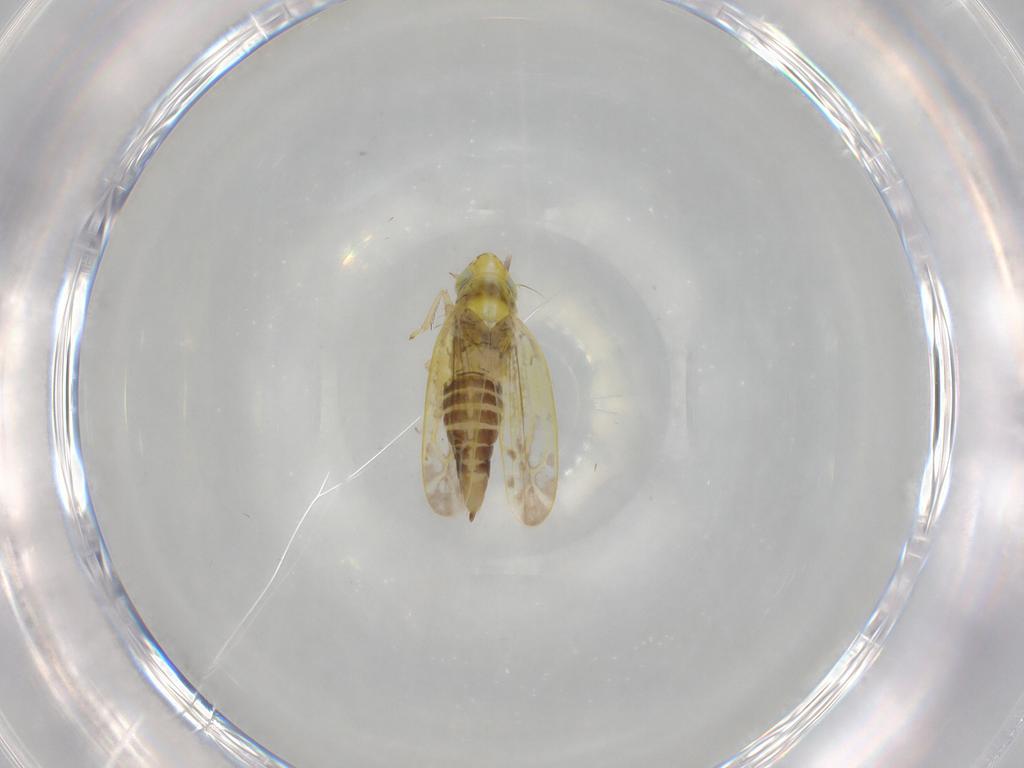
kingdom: Animalia
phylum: Arthropoda
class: Insecta
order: Hemiptera
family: Cicadellidae
